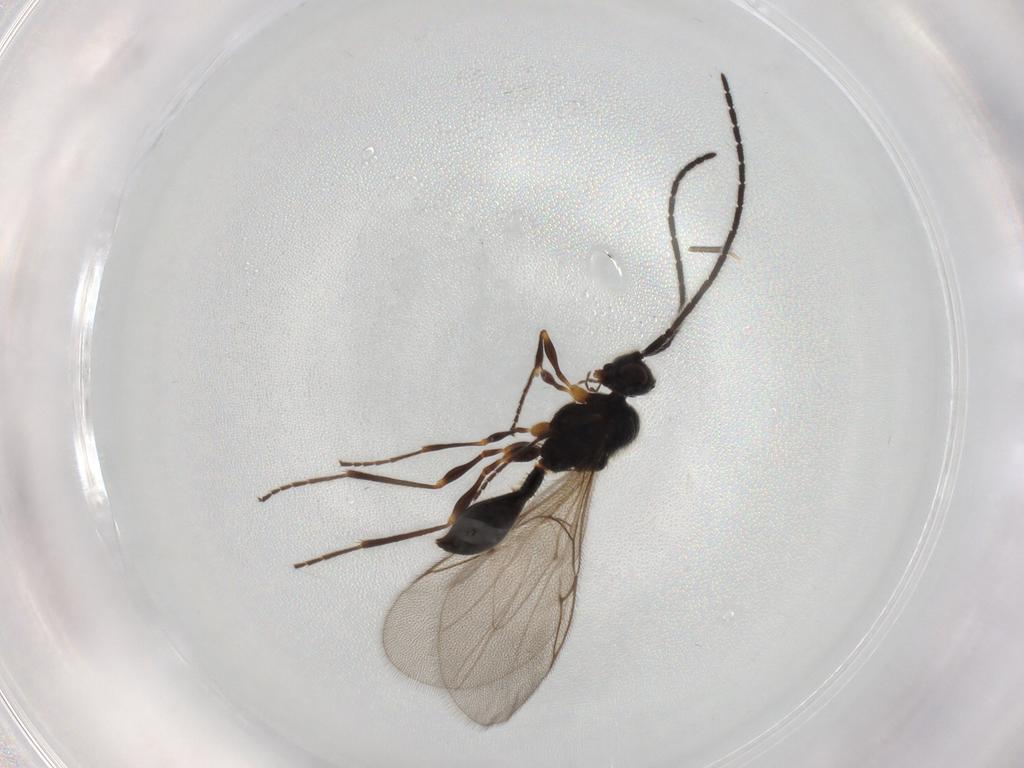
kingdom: Animalia
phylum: Arthropoda
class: Insecta
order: Hymenoptera
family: Diapriidae
